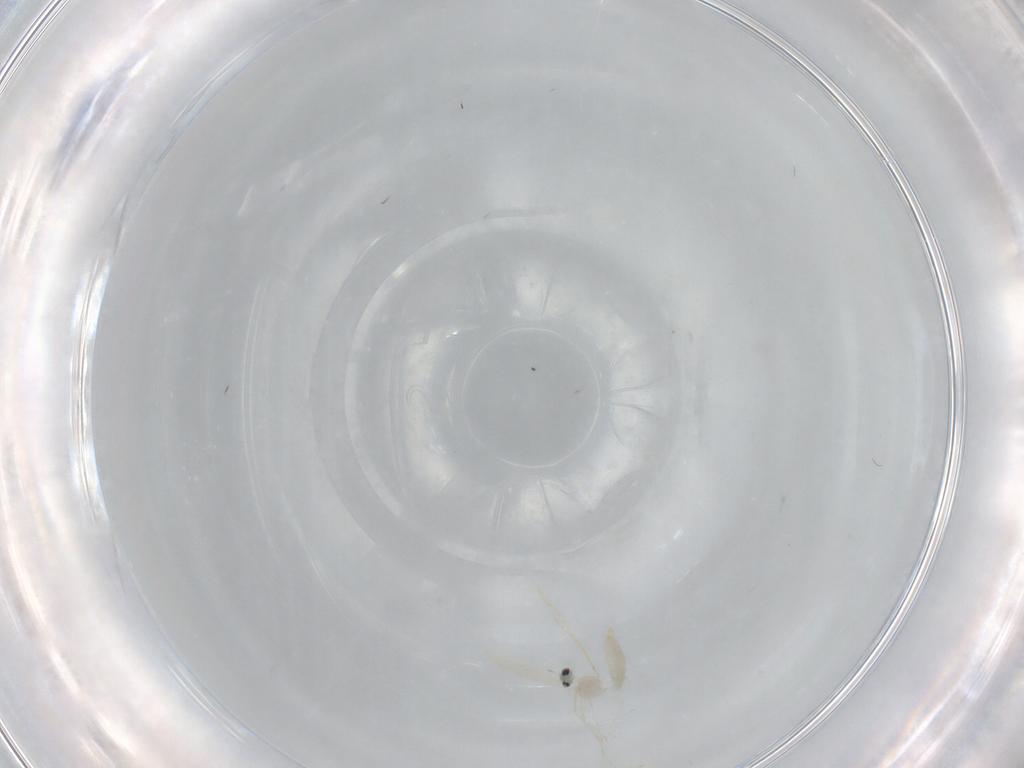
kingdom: Animalia
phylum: Arthropoda
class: Insecta
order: Diptera
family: Cecidomyiidae
